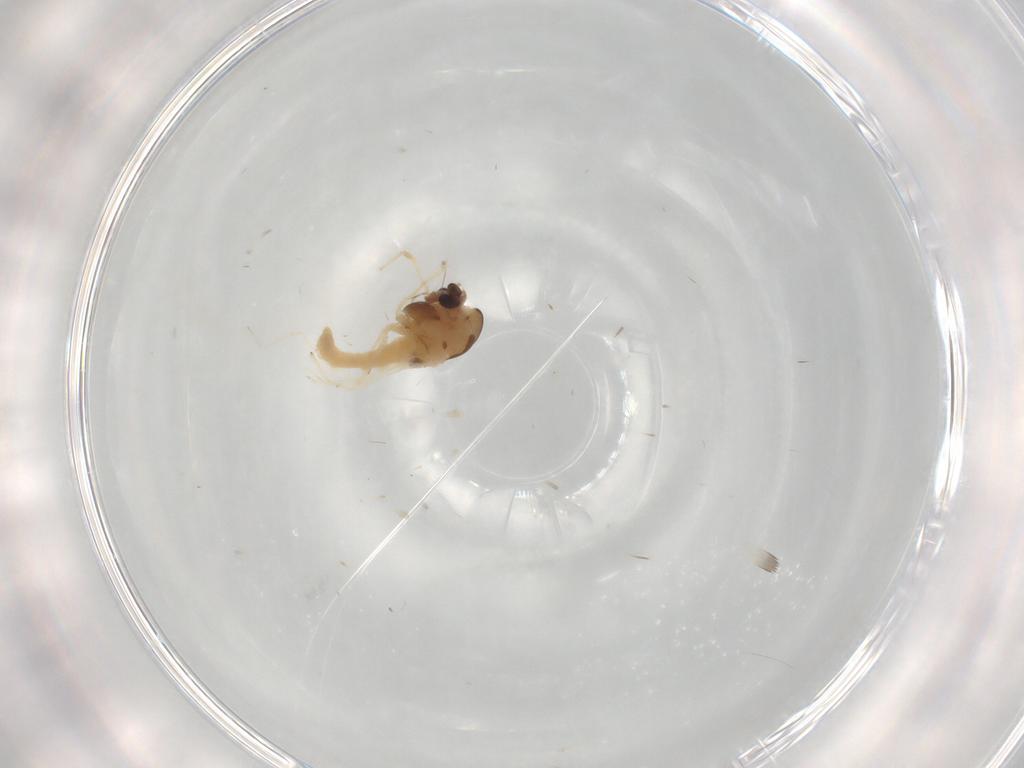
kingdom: Animalia
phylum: Arthropoda
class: Insecta
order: Diptera
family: Chironomidae
